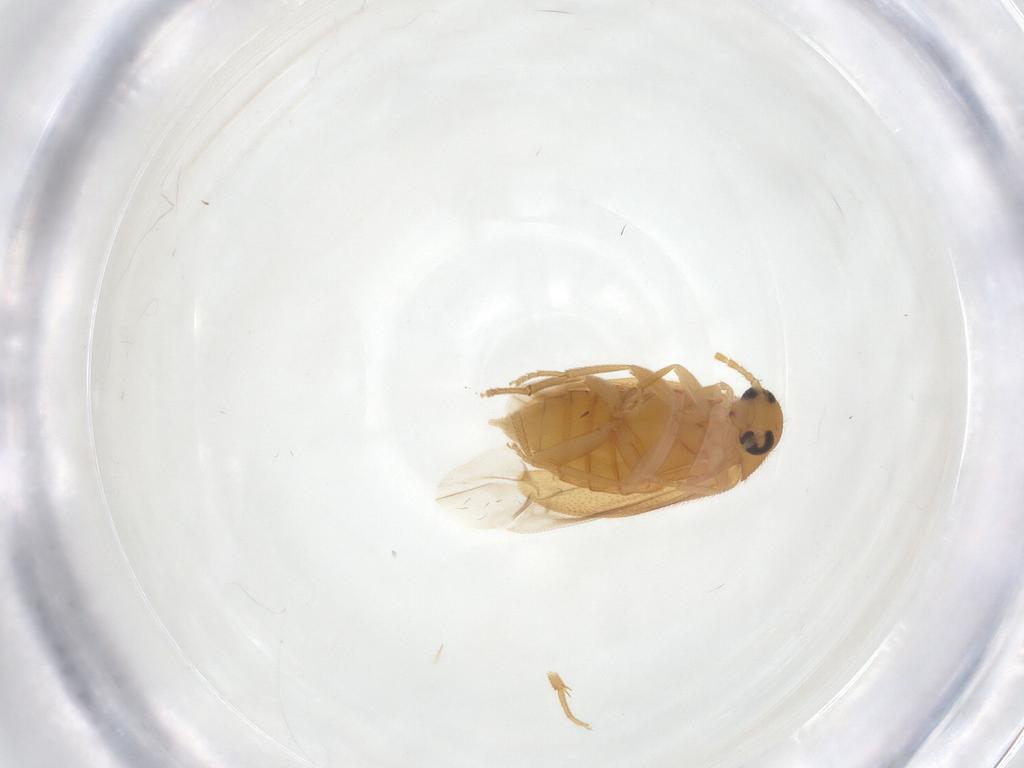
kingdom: Animalia
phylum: Arthropoda
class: Insecta
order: Coleoptera
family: Scraptiidae
